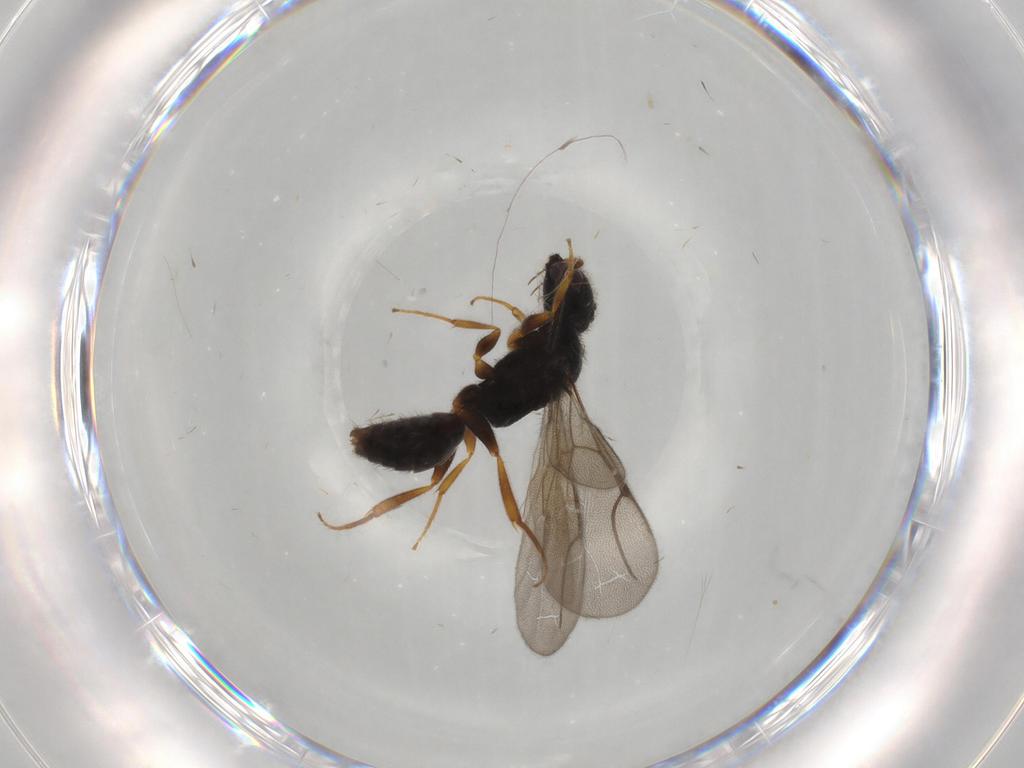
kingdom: Animalia
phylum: Arthropoda
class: Insecta
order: Hymenoptera
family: Bethylidae
